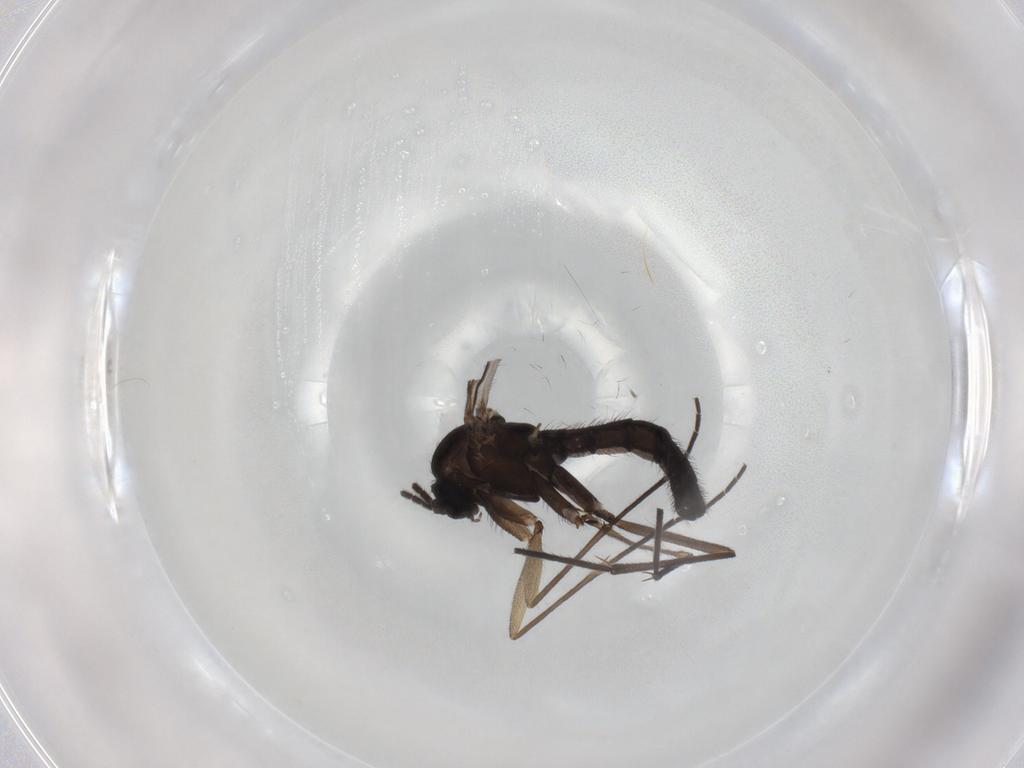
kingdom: Animalia
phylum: Arthropoda
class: Insecta
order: Diptera
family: Sciaridae
